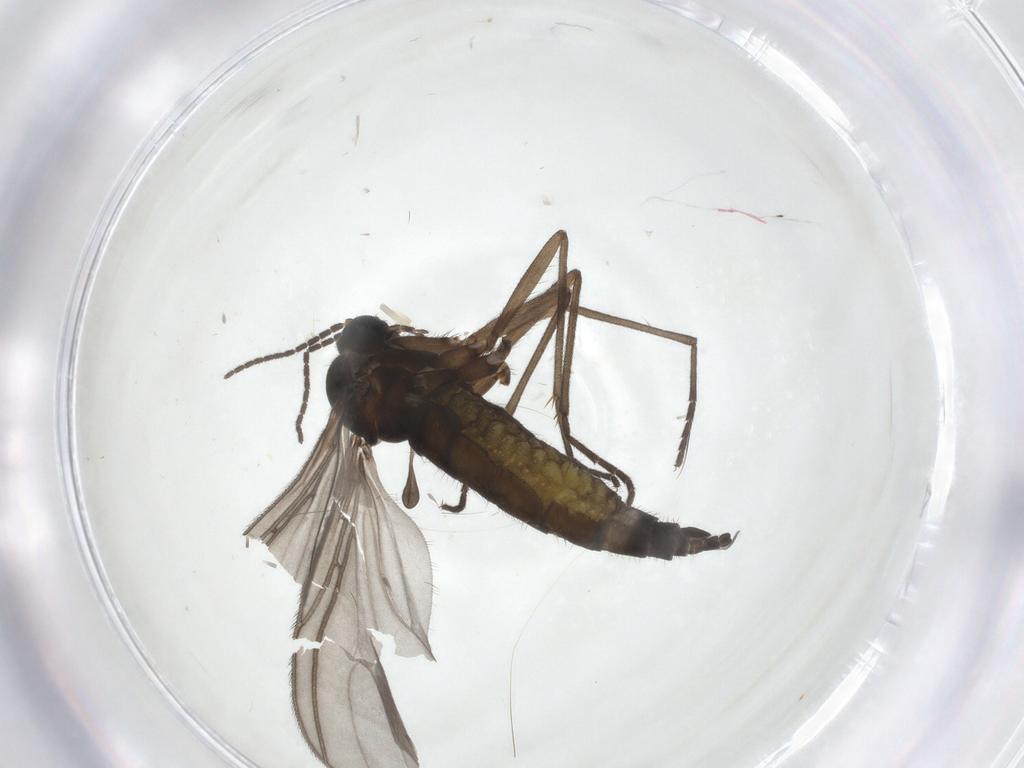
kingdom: Animalia
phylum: Arthropoda
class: Insecta
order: Diptera
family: Sciaridae
